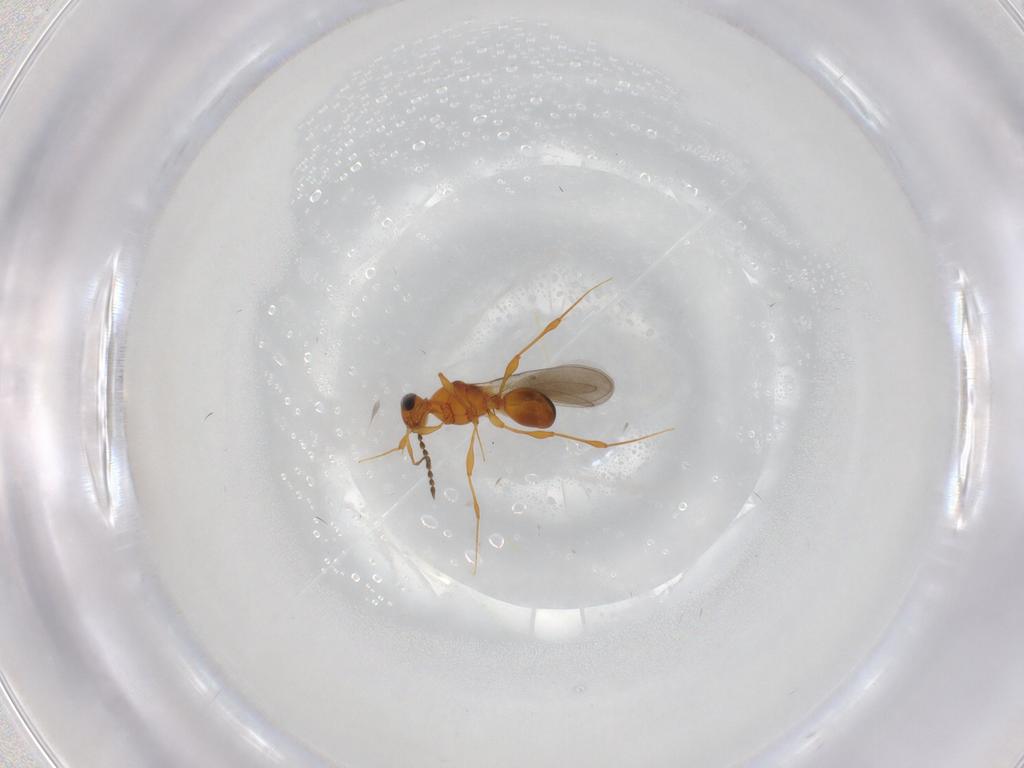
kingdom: Animalia
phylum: Arthropoda
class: Insecta
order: Hymenoptera
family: Platygastridae
